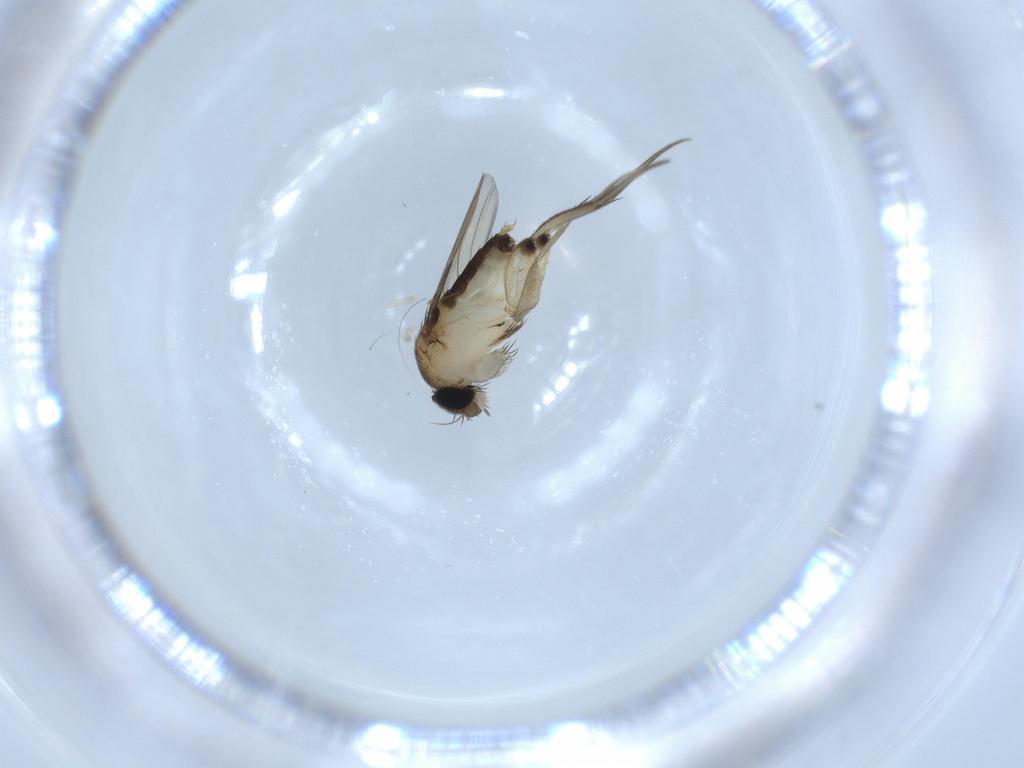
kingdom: Animalia
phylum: Arthropoda
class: Insecta
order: Diptera
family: Phoridae
